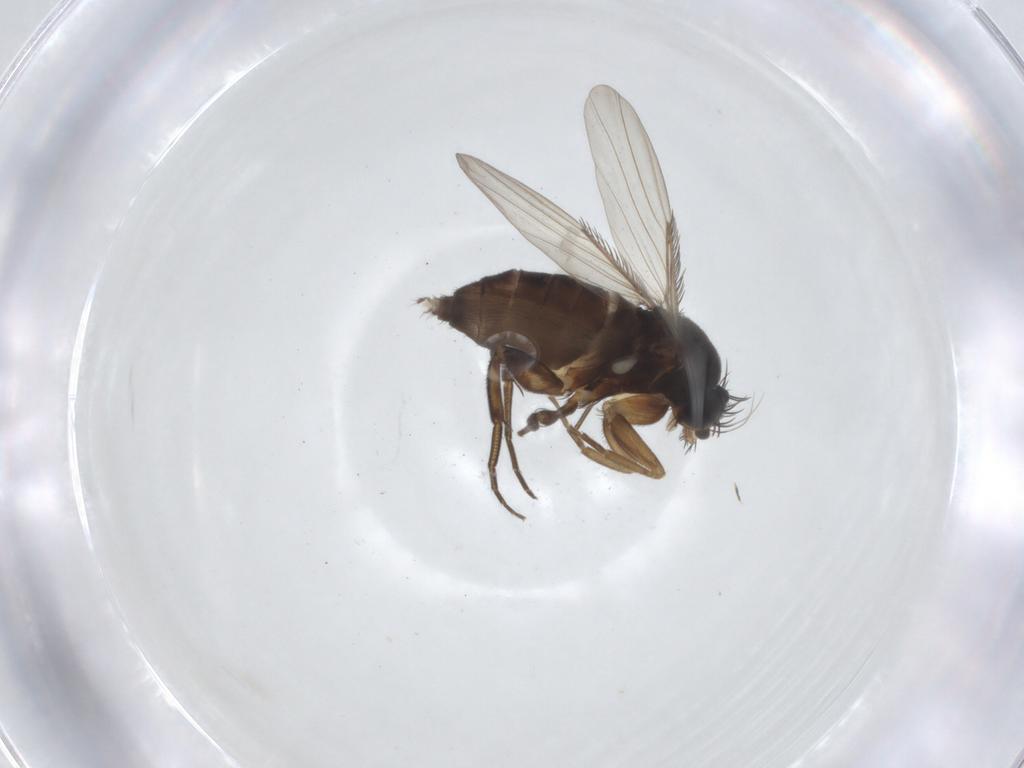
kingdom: Animalia
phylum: Arthropoda
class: Insecta
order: Diptera
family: Phoridae
